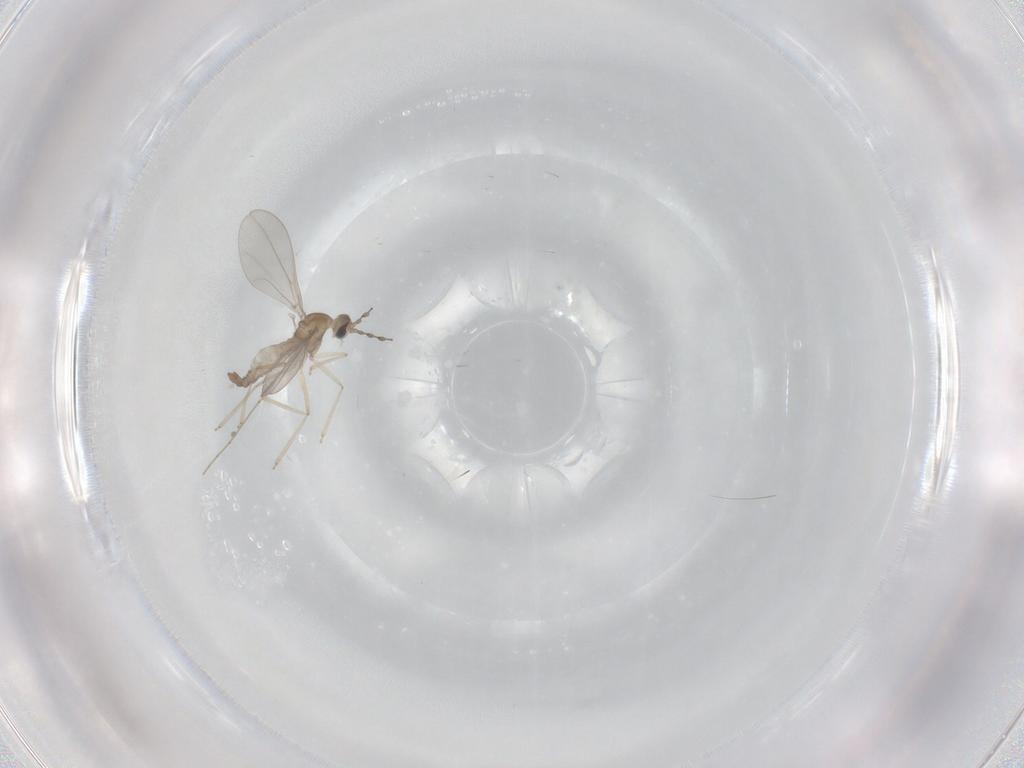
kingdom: Animalia
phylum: Arthropoda
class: Insecta
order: Diptera
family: Cecidomyiidae
